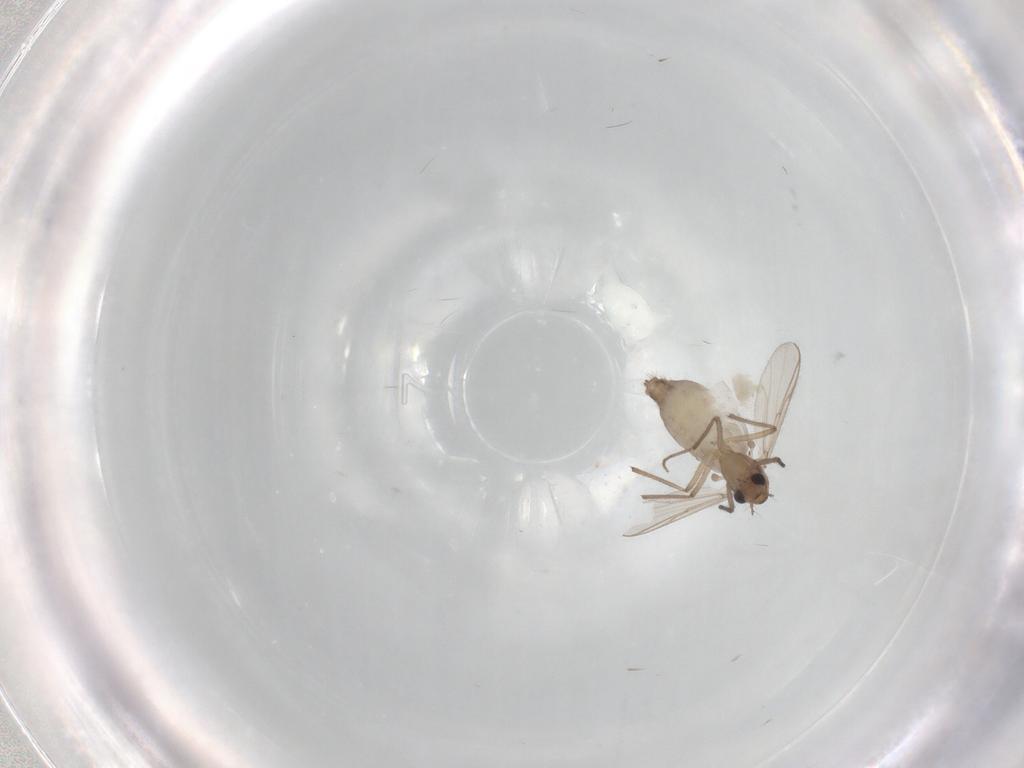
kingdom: Animalia
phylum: Arthropoda
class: Insecta
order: Diptera
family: Chironomidae
